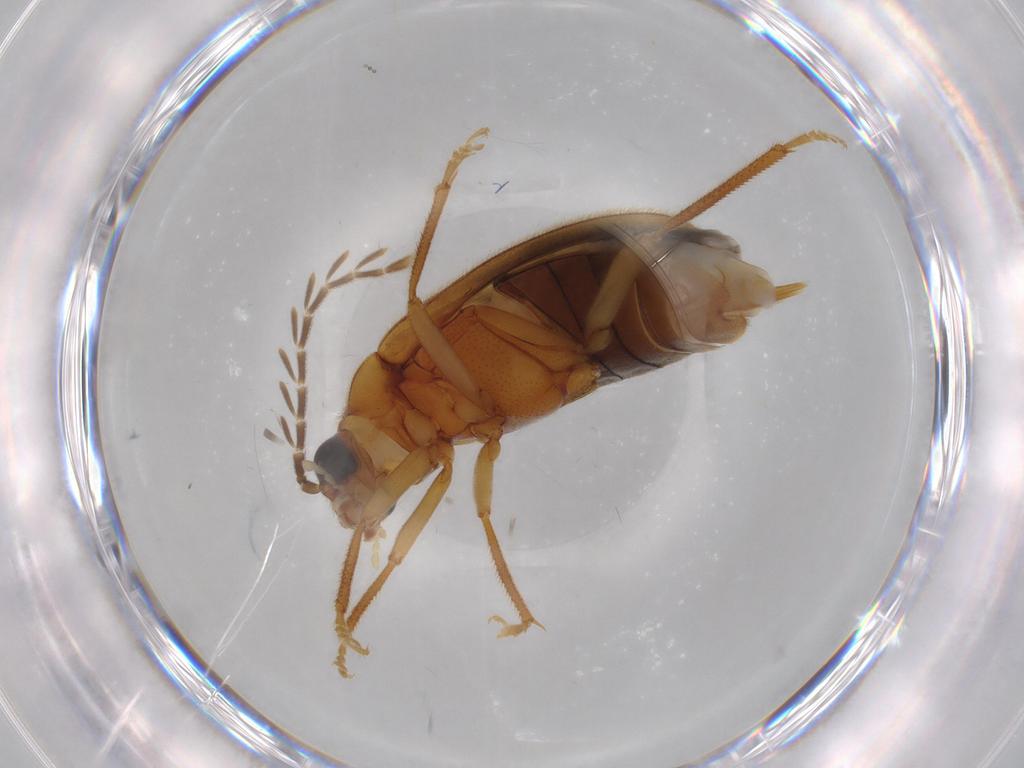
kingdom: Animalia
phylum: Arthropoda
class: Insecta
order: Coleoptera
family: Ptilodactylidae
